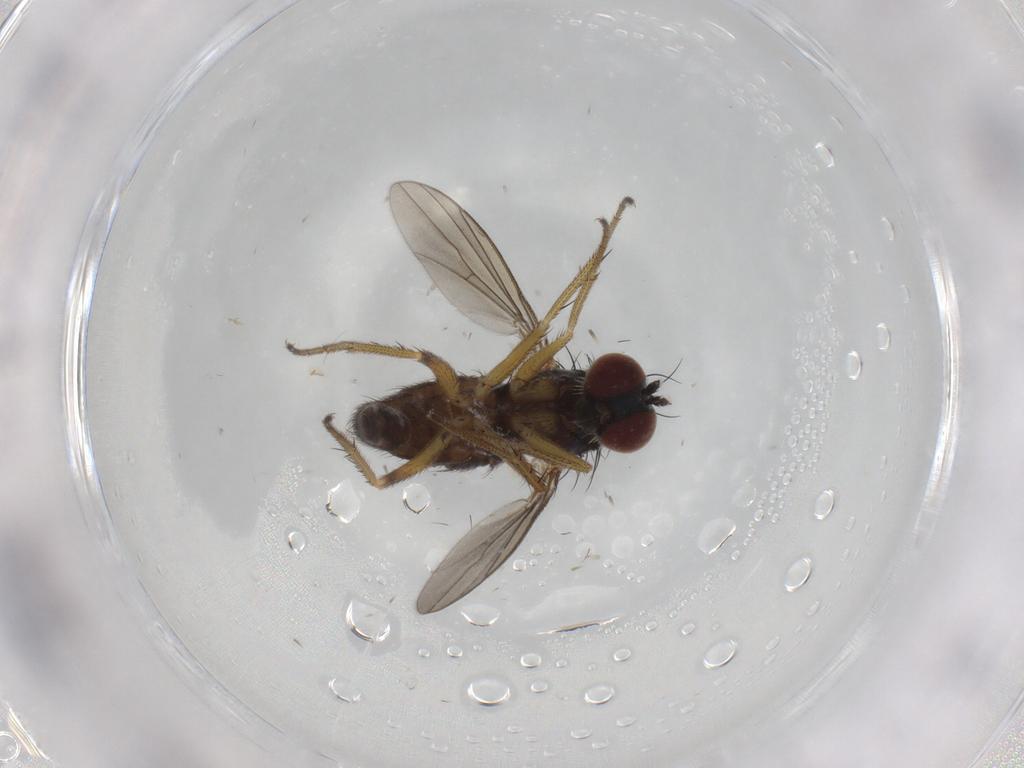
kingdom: Animalia
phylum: Arthropoda
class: Insecta
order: Diptera
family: Dolichopodidae
